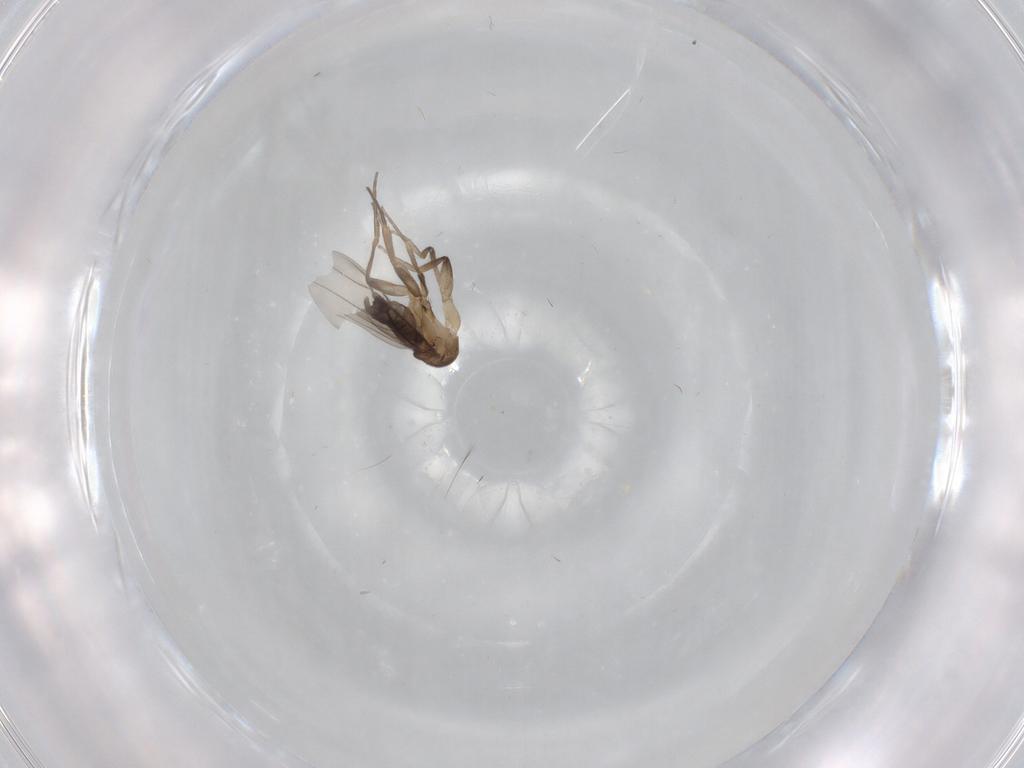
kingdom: Animalia
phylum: Arthropoda
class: Insecta
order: Diptera
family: Phoridae
